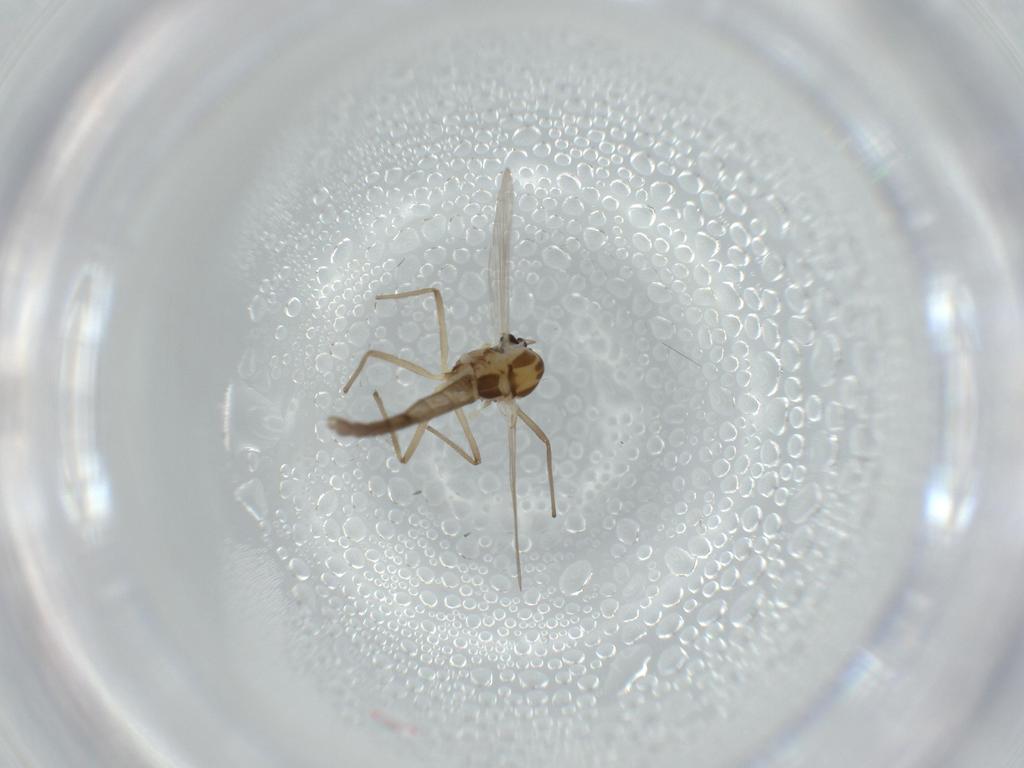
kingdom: Animalia
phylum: Arthropoda
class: Insecta
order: Diptera
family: Chironomidae
